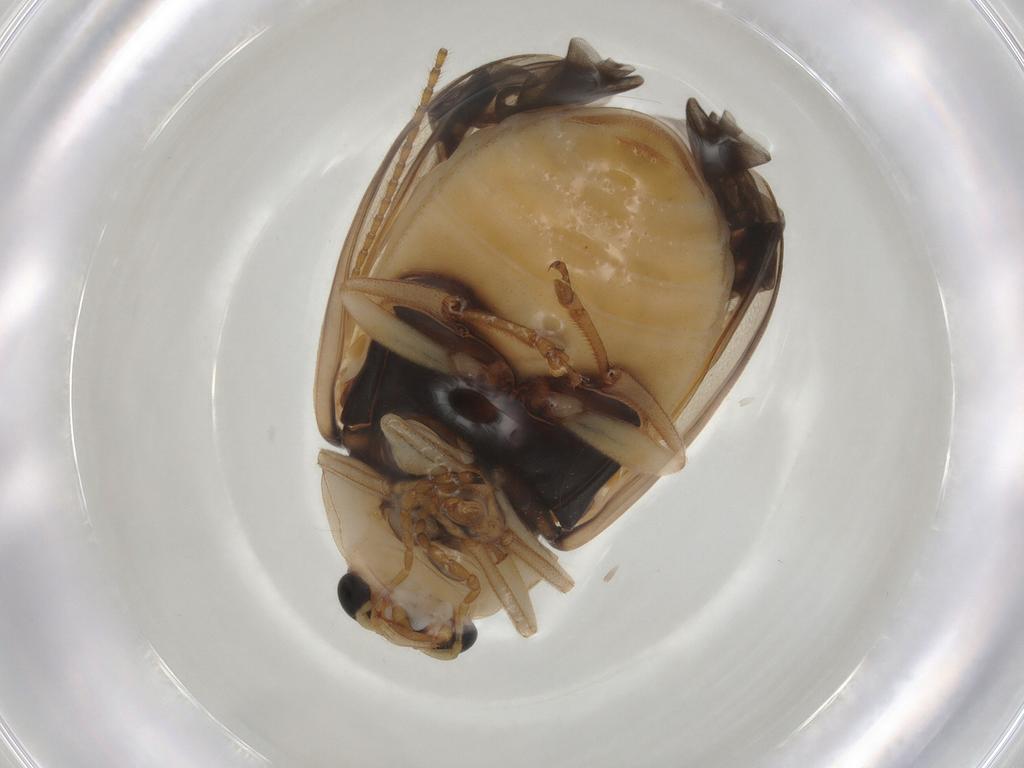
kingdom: Animalia
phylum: Arthropoda
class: Insecta
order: Coleoptera
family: Chrysomelidae
